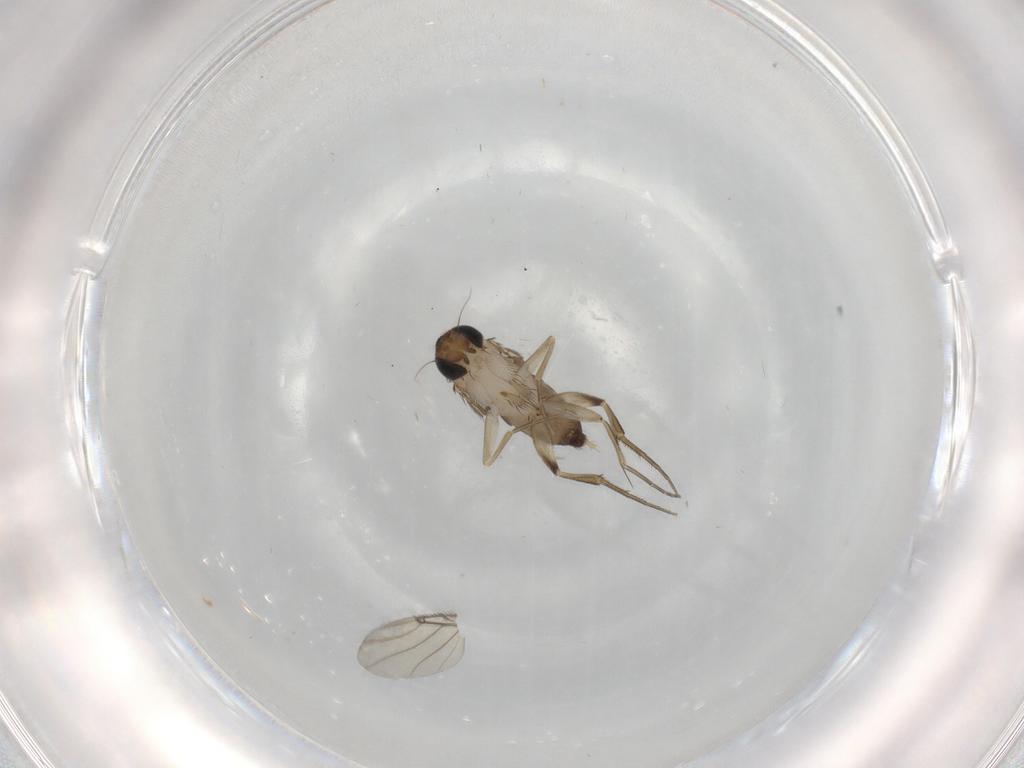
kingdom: Animalia
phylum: Arthropoda
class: Insecta
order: Diptera
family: Phoridae
